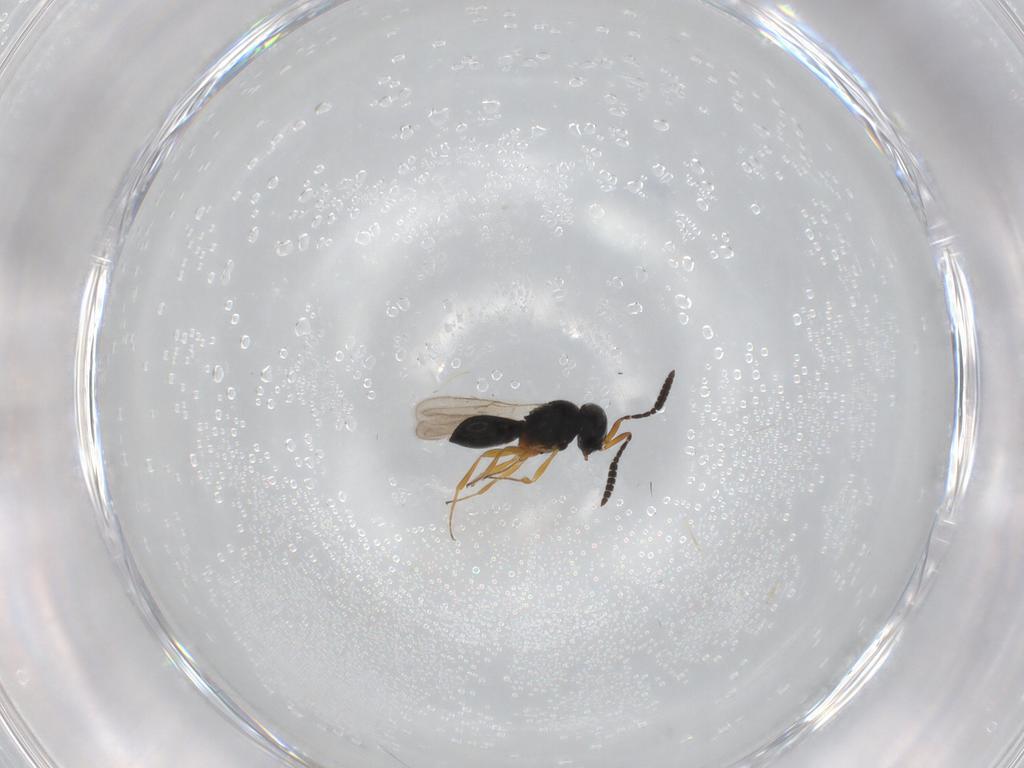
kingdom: Animalia
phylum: Arthropoda
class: Insecta
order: Hymenoptera
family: Scelionidae
